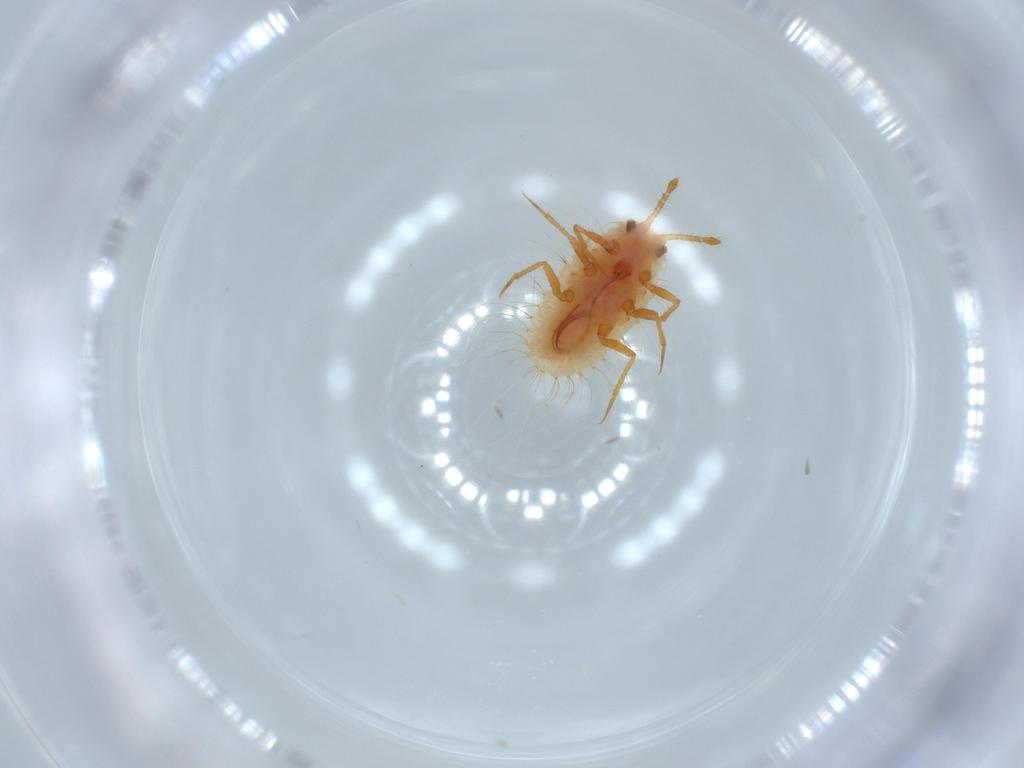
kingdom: Animalia
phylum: Arthropoda
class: Insecta
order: Hemiptera
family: Coccoidea_incertae_sedis
